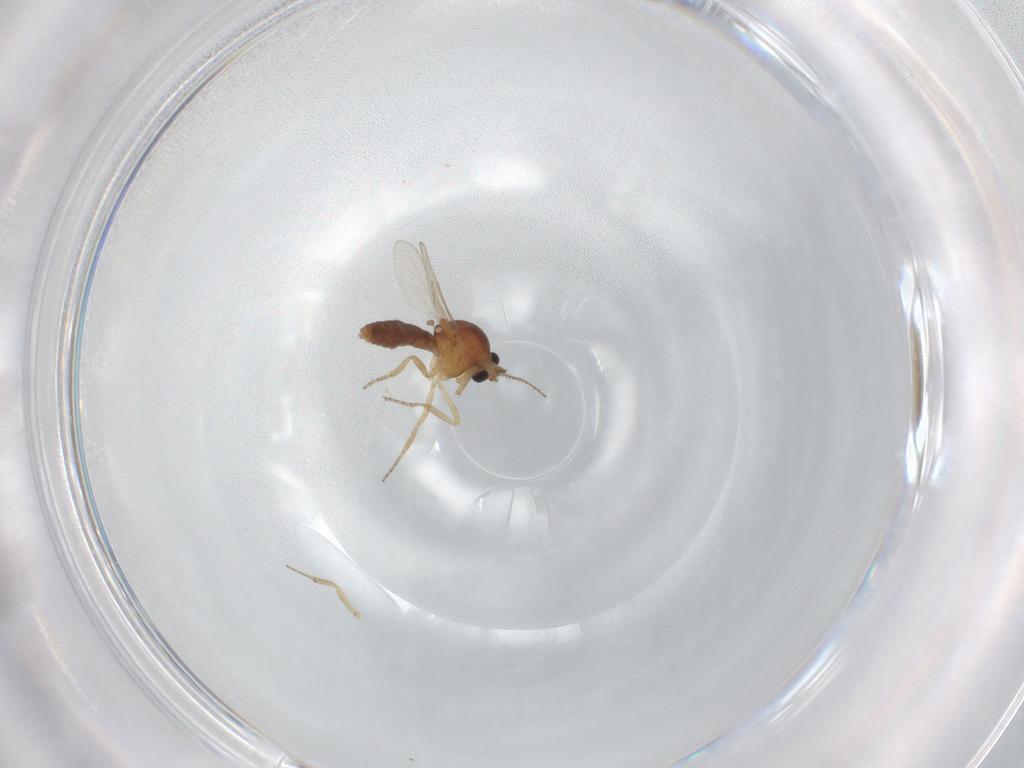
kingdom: Animalia
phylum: Arthropoda
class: Insecta
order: Diptera
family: Ceratopogonidae
